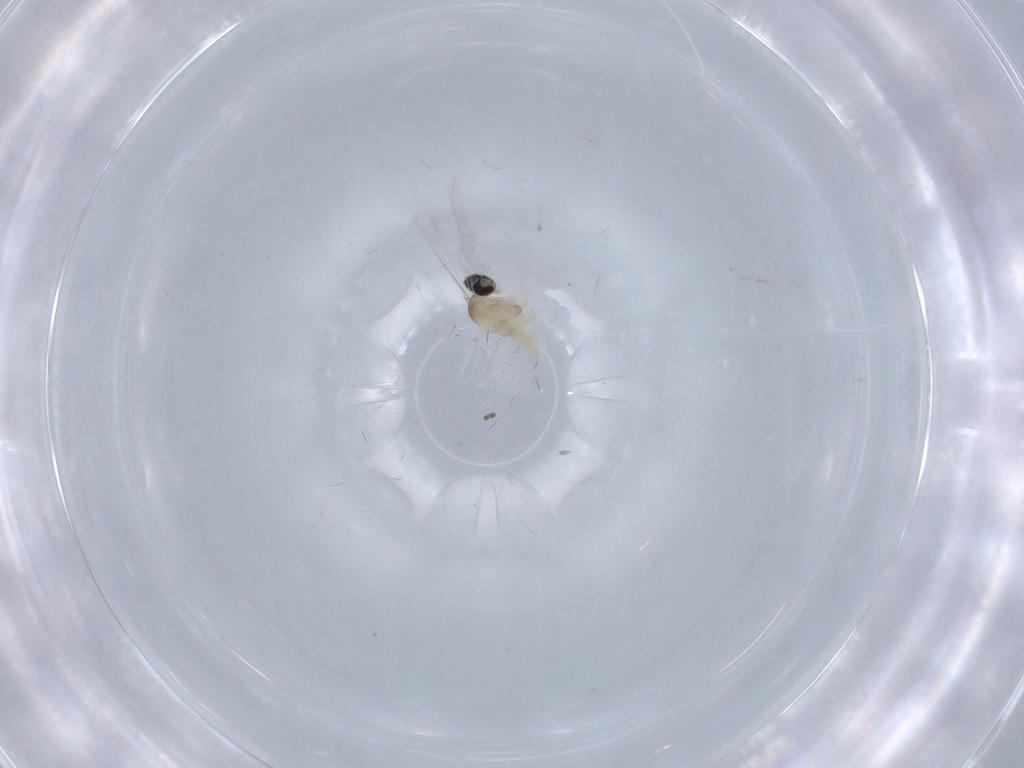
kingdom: Animalia
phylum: Arthropoda
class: Insecta
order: Diptera
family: Cecidomyiidae
